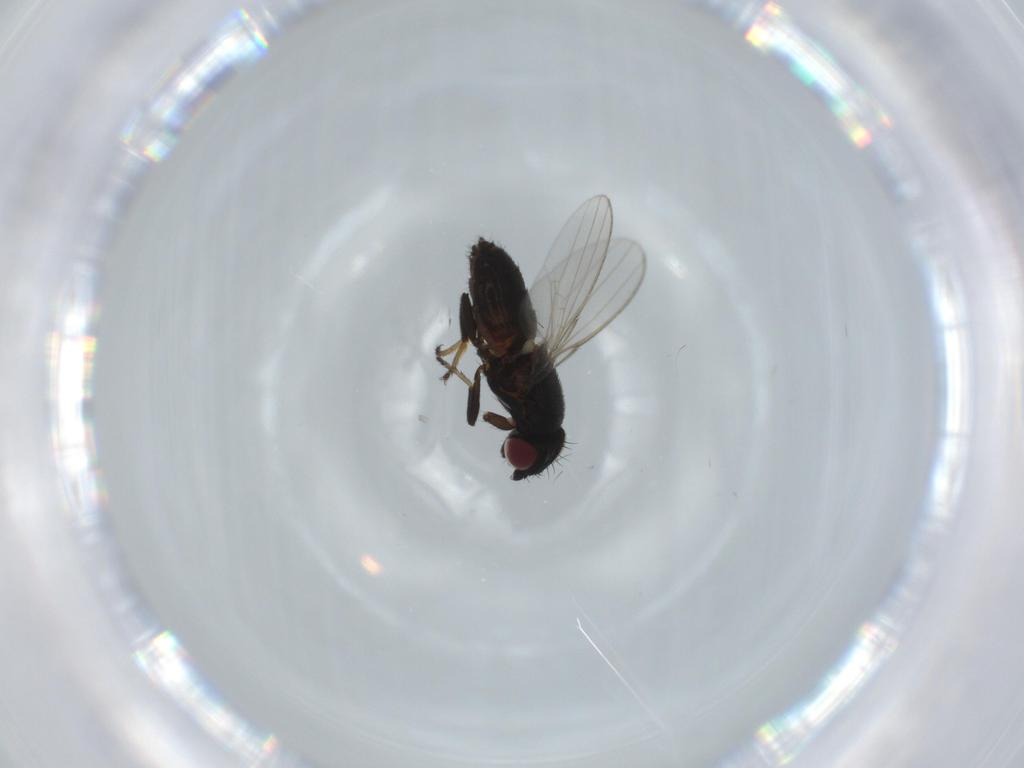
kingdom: Animalia
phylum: Arthropoda
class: Insecta
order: Diptera
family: Milichiidae
